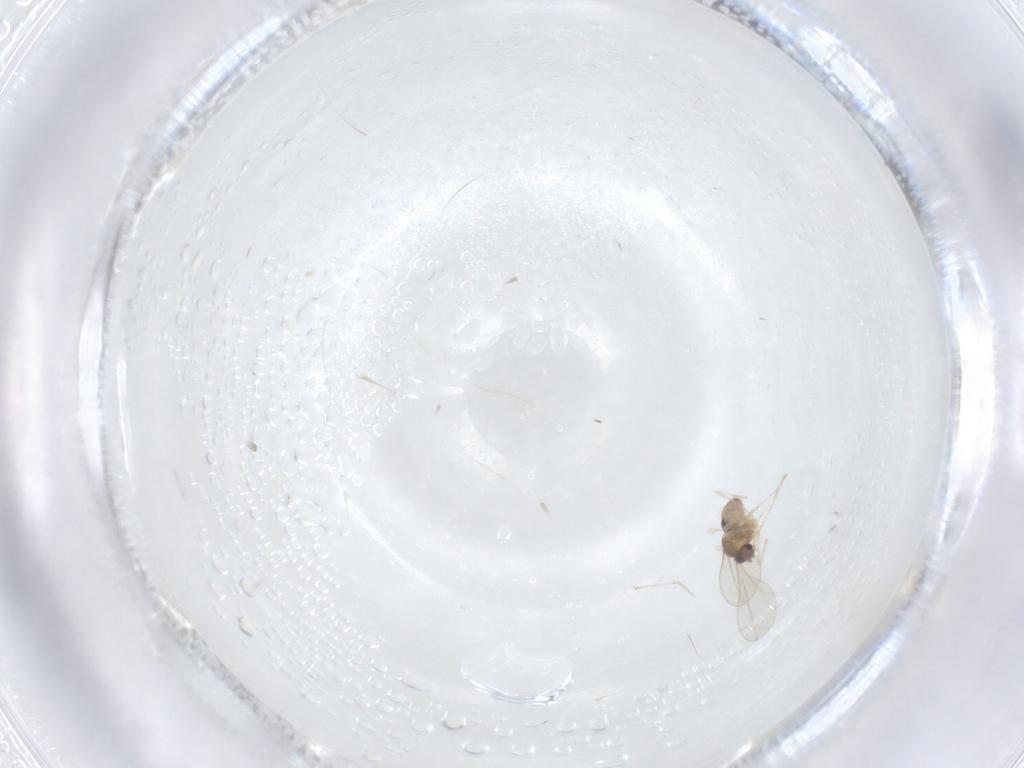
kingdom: Animalia
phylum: Arthropoda
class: Insecta
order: Diptera
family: Cecidomyiidae
